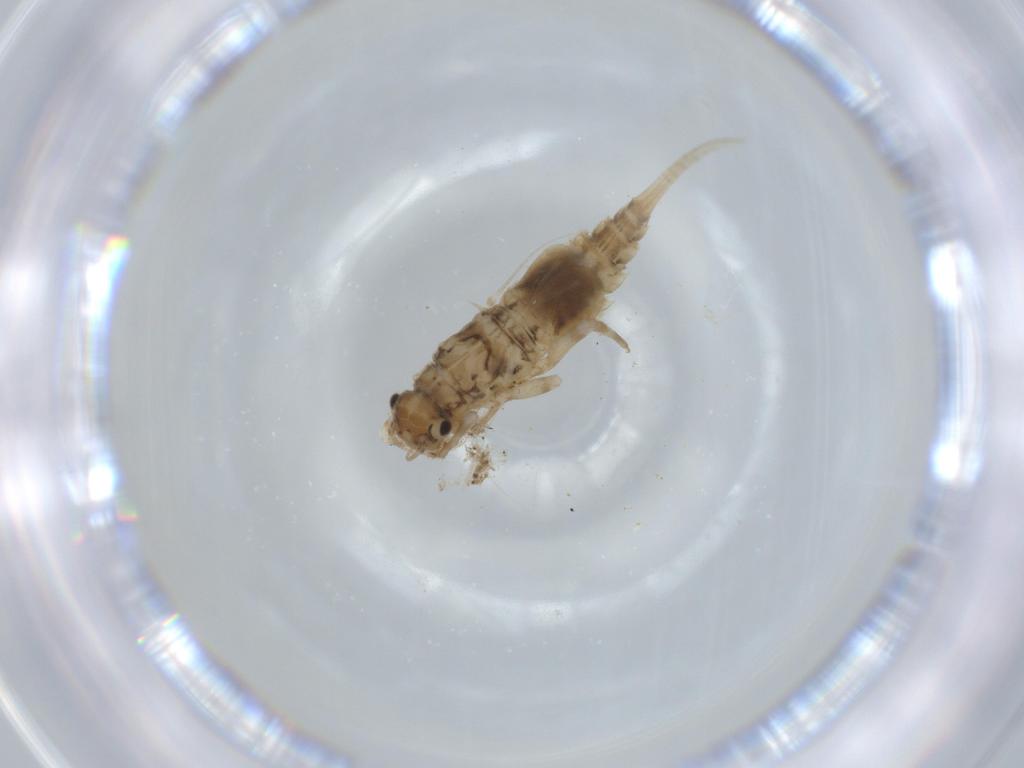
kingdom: Animalia
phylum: Arthropoda
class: Insecta
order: Ephemeroptera
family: Caenidae
